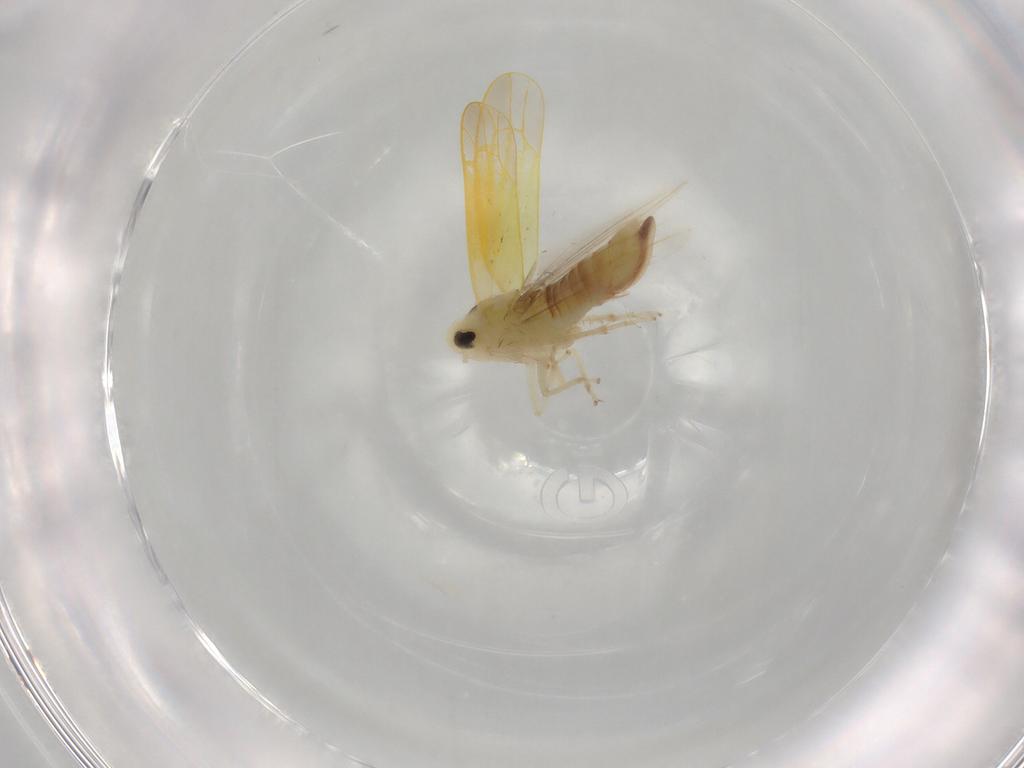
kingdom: Animalia
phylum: Arthropoda
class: Insecta
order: Hemiptera
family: Cicadellidae
